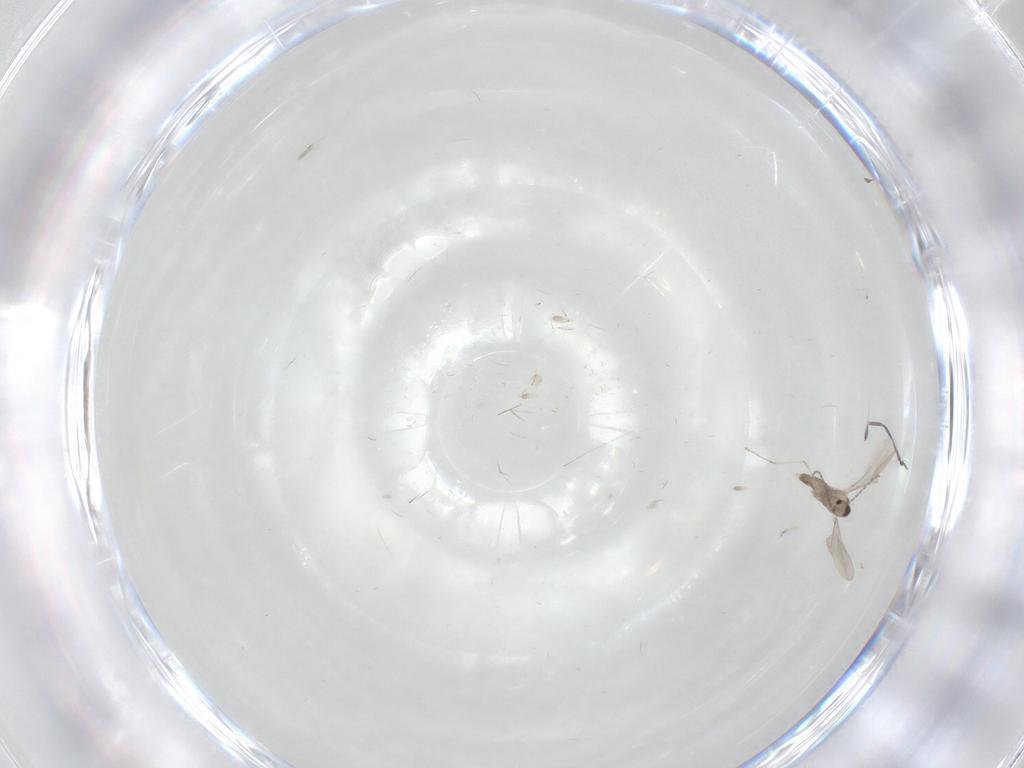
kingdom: Animalia
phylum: Arthropoda
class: Insecta
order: Diptera
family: Cecidomyiidae
